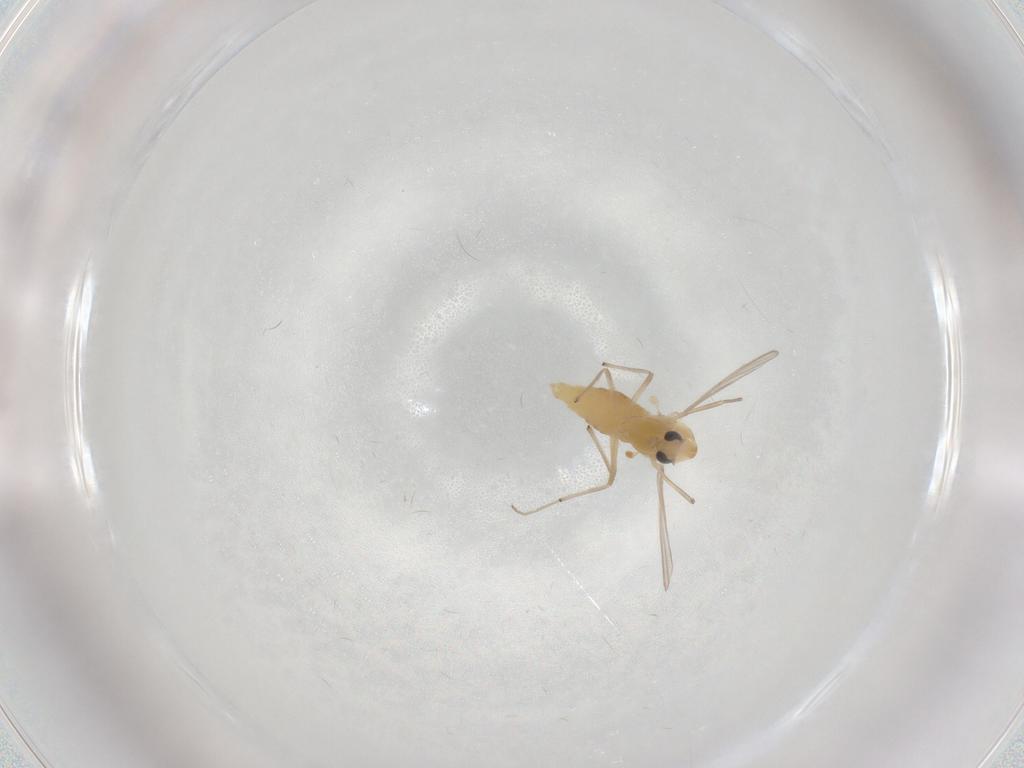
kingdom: Animalia
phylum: Arthropoda
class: Insecta
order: Diptera
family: Chironomidae
